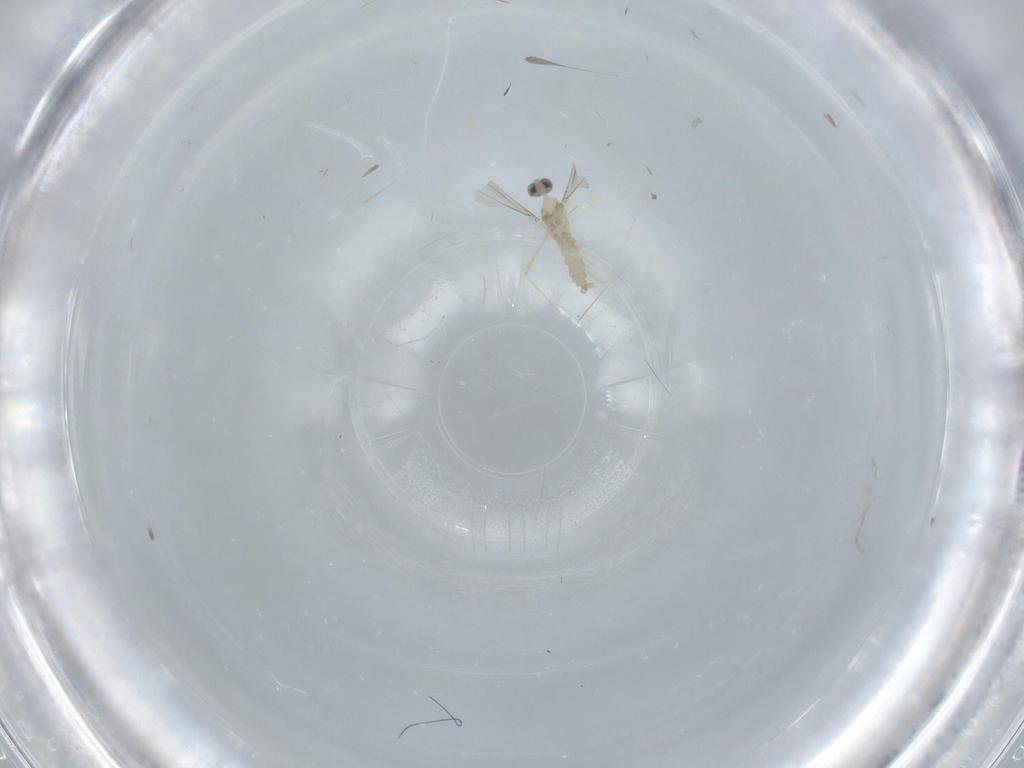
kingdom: Animalia
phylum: Arthropoda
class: Insecta
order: Diptera
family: Cecidomyiidae
